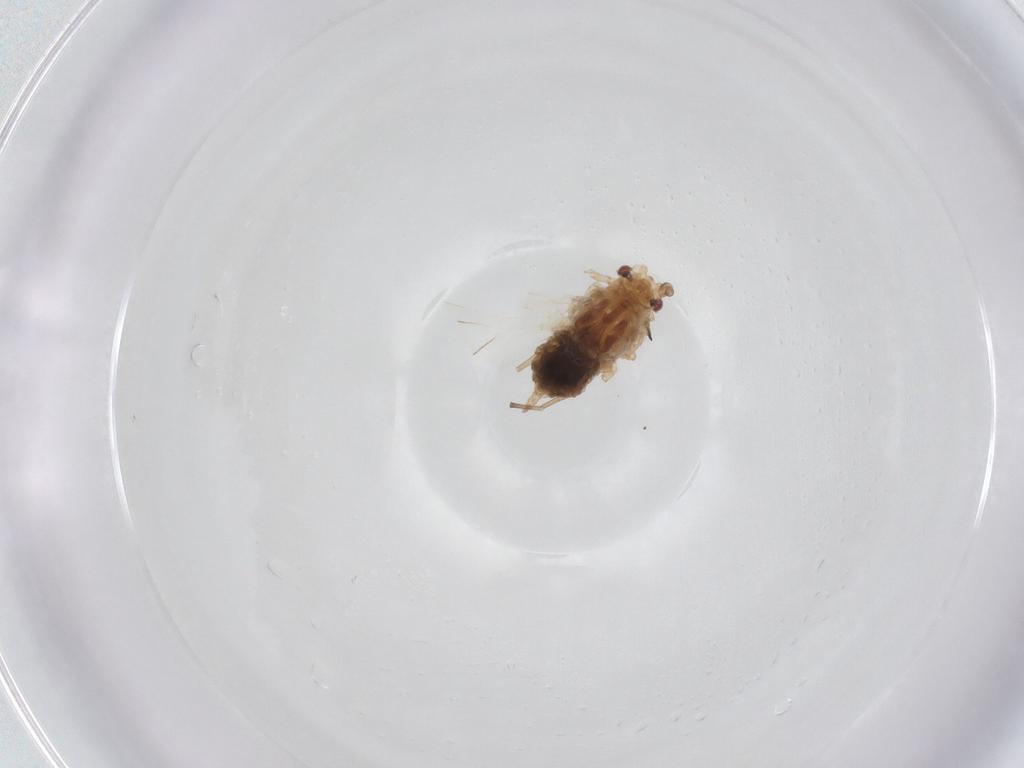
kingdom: Animalia
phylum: Arthropoda
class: Insecta
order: Hemiptera
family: Aphididae
